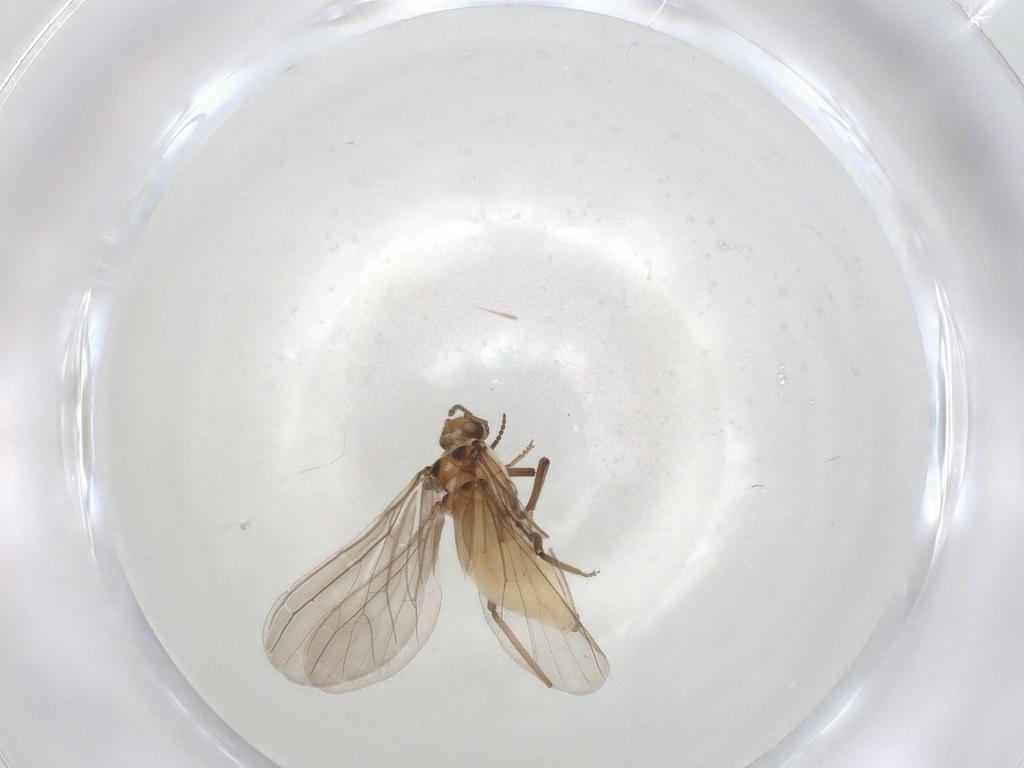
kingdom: Animalia
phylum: Arthropoda
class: Insecta
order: Neuroptera
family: Coniopterygidae
